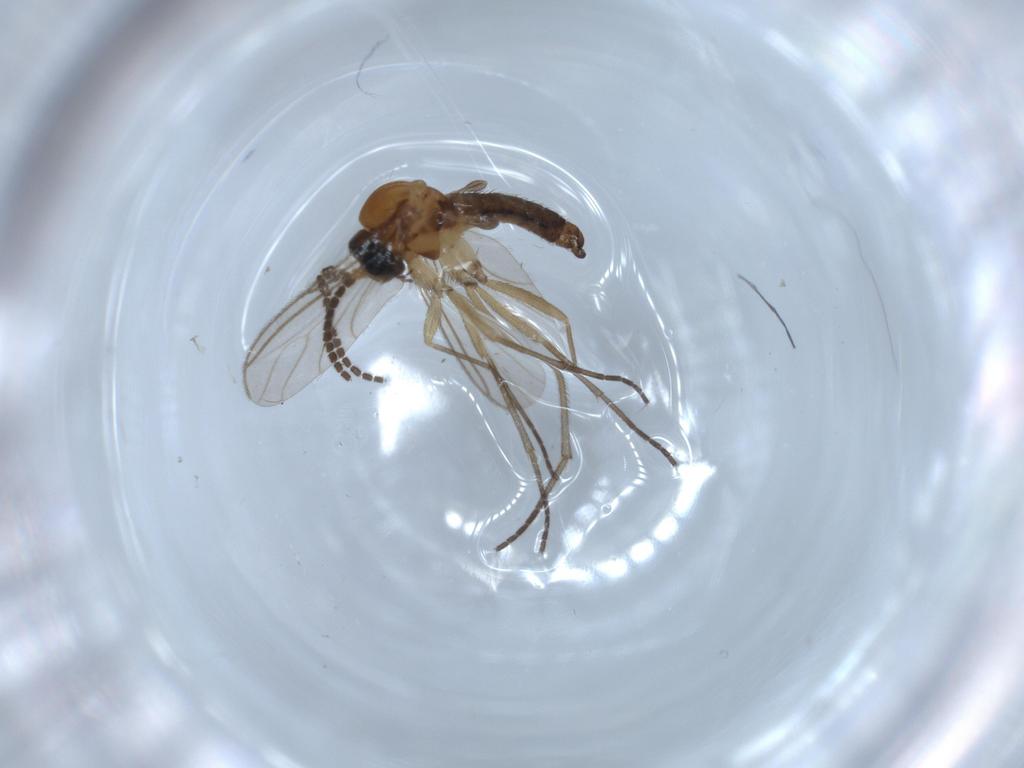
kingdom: Animalia
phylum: Arthropoda
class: Insecta
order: Diptera
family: Sciaridae
